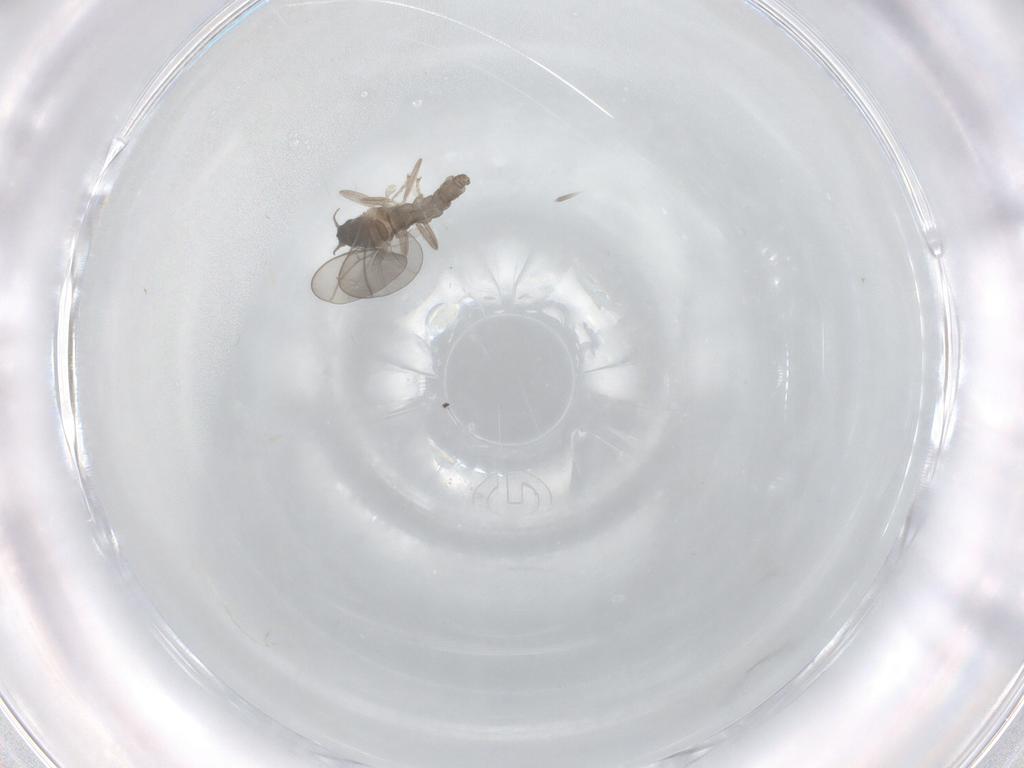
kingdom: Animalia
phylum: Arthropoda
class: Insecta
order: Diptera
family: Cecidomyiidae
